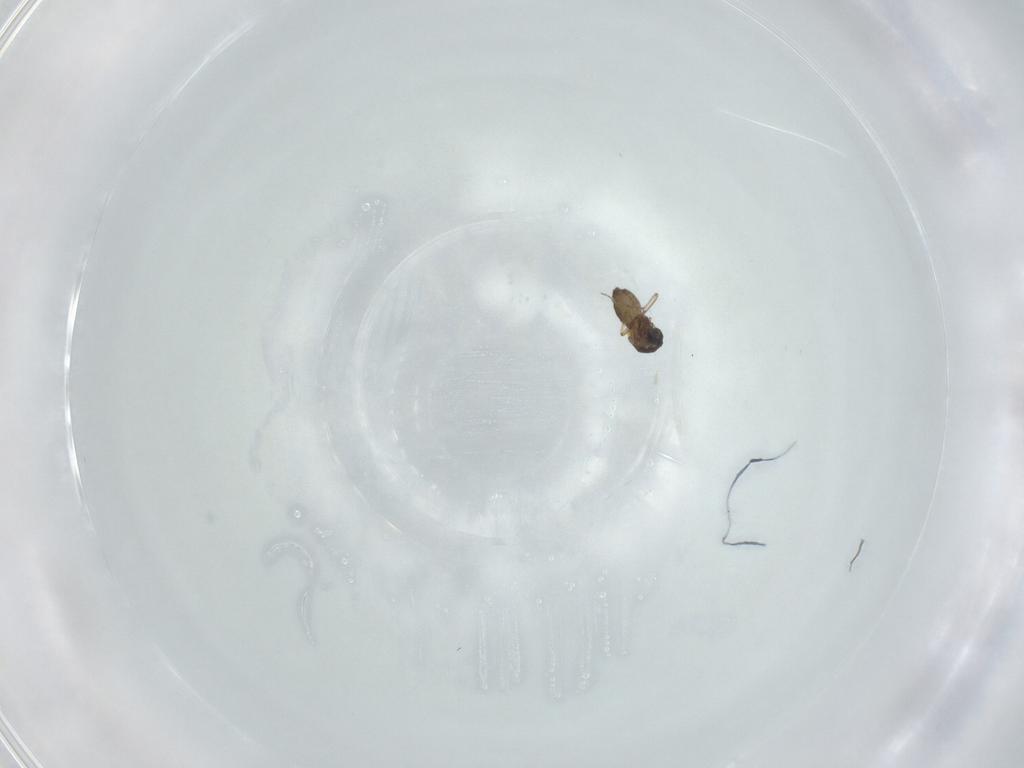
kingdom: Animalia
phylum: Arthropoda
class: Insecta
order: Diptera
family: Ceratopogonidae
